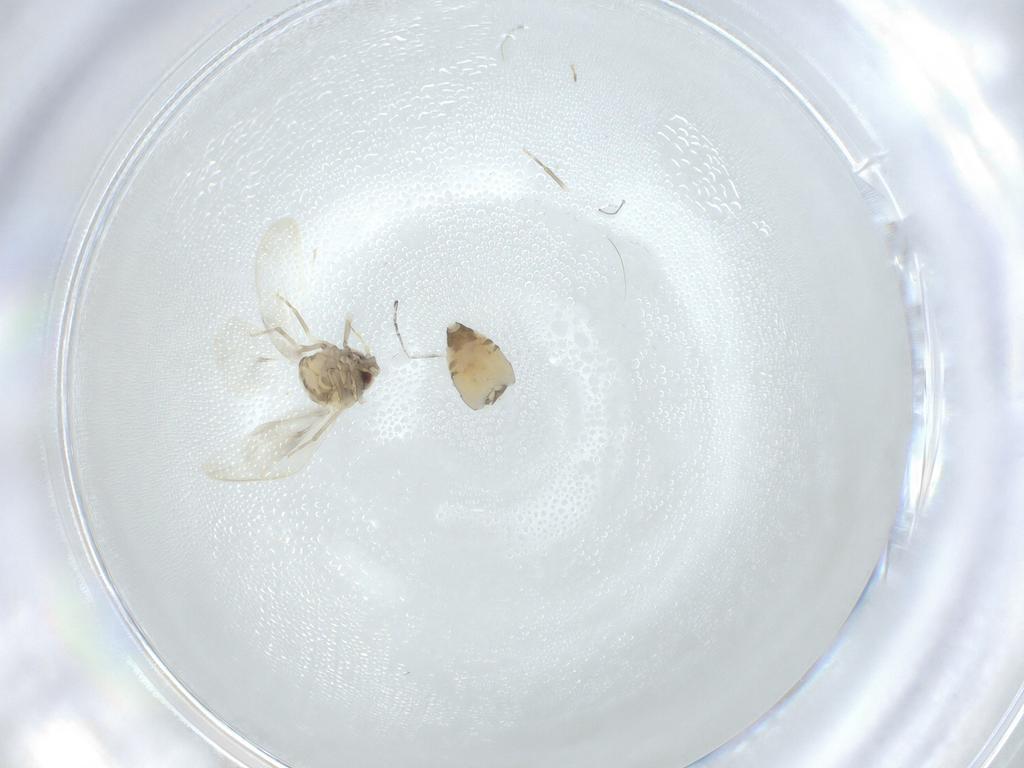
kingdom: Animalia
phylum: Arthropoda
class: Insecta
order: Hemiptera
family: Aleyrodidae
